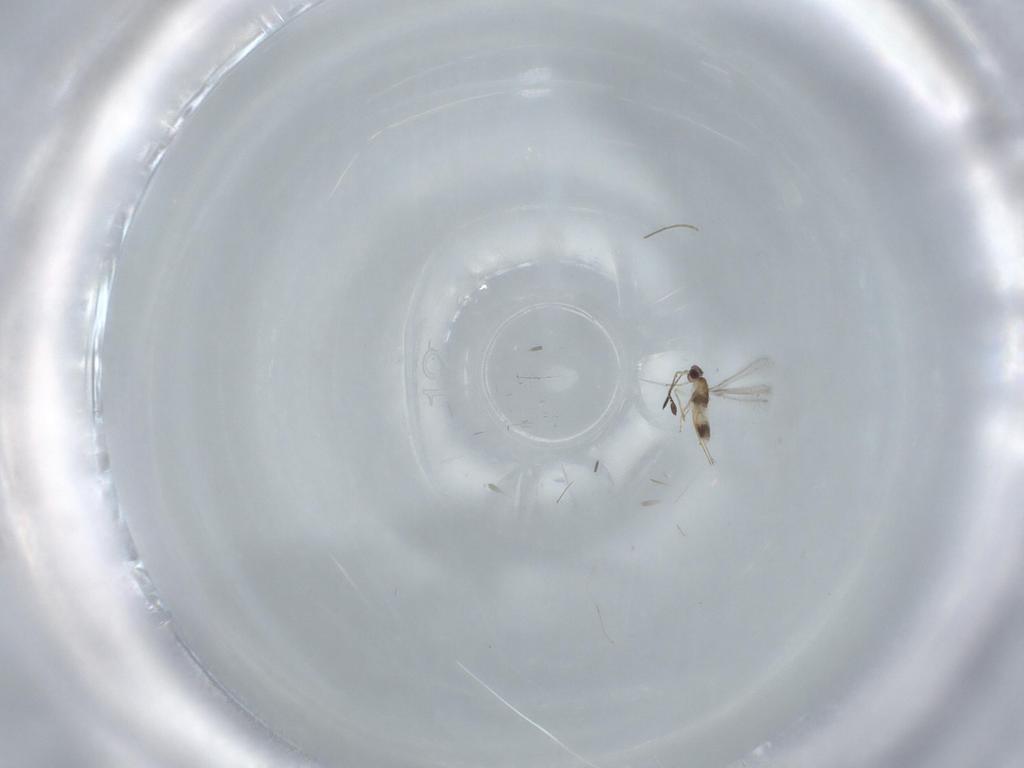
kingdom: Animalia
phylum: Arthropoda
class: Insecta
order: Hymenoptera
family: Mymaridae
